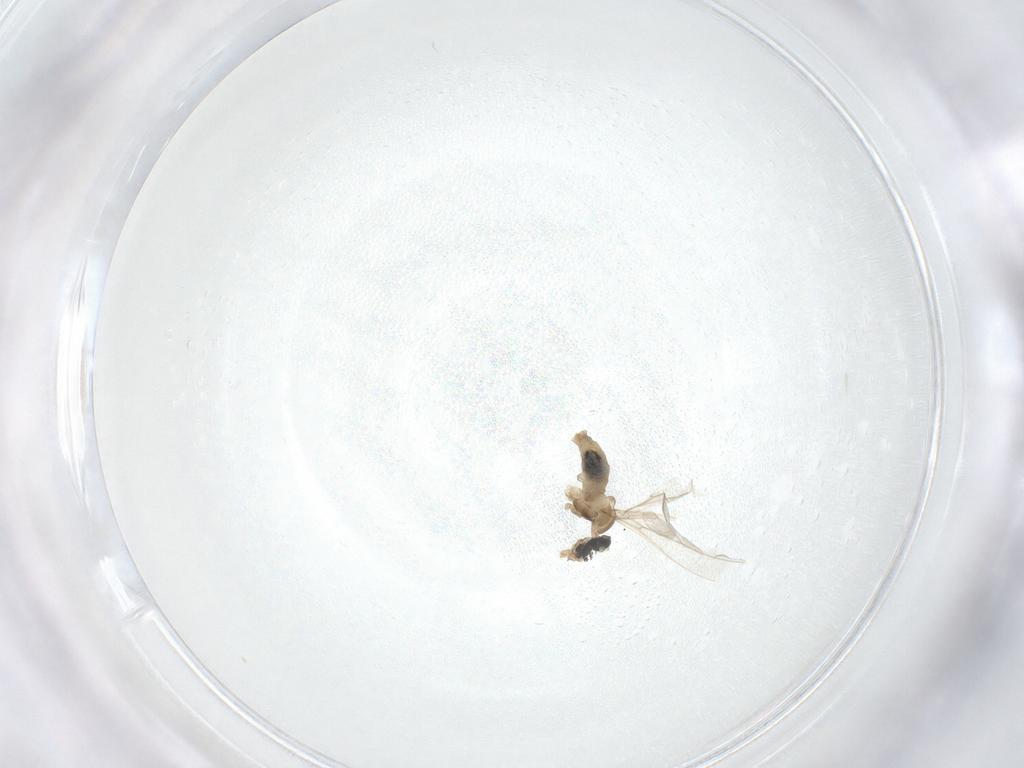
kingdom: Animalia
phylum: Arthropoda
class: Insecta
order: Diptera
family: Cecidomyiidae
